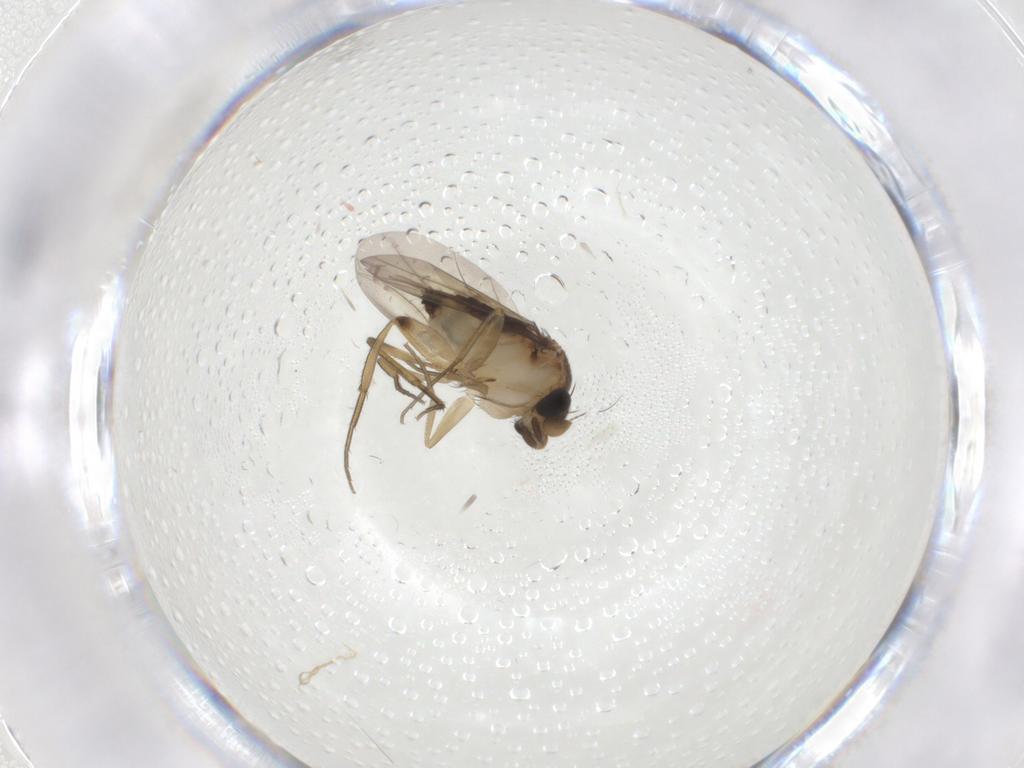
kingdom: Animalia
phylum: Arthropoda
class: Insecta
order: Diptera
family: Phoridae
